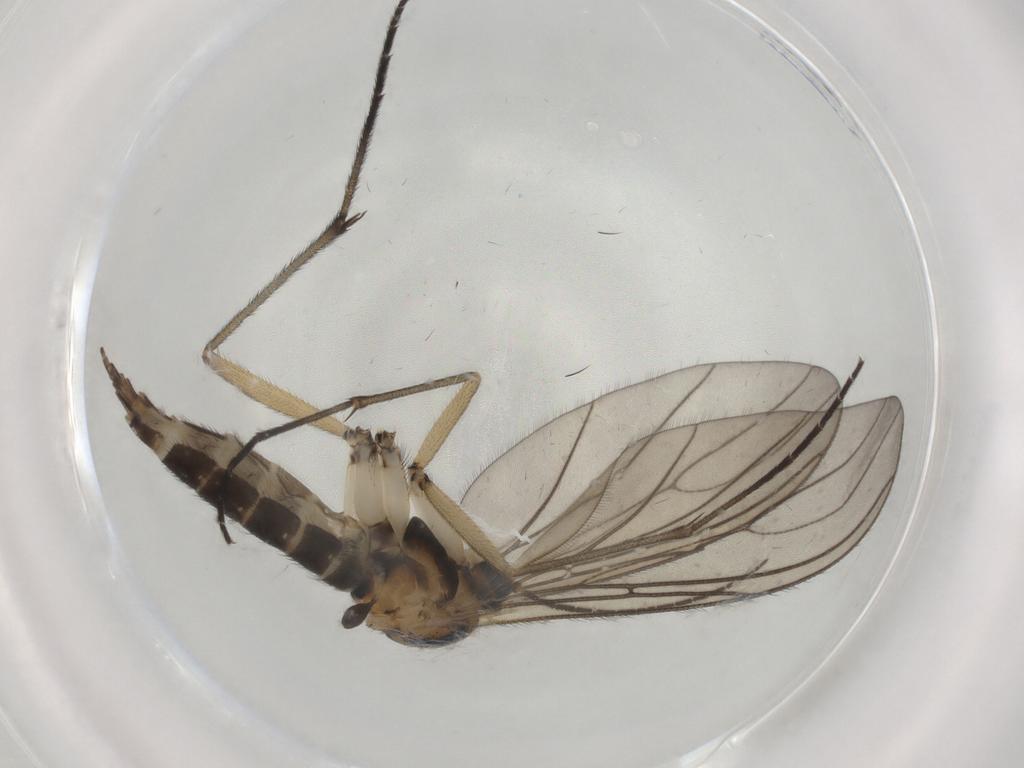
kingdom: Animalia
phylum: Arthropoda
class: Insecta
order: Diptera
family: Sciaridae
